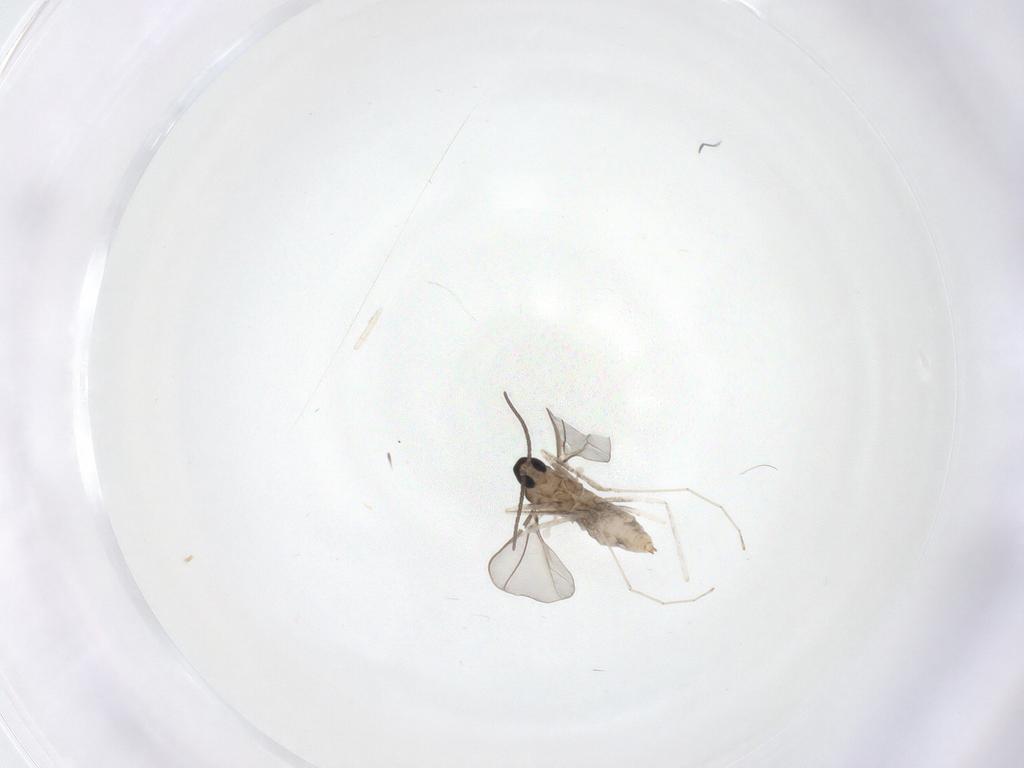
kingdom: Animalia
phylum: Arthropoda
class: Insecta
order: Diptera
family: Cecidomyiidae
